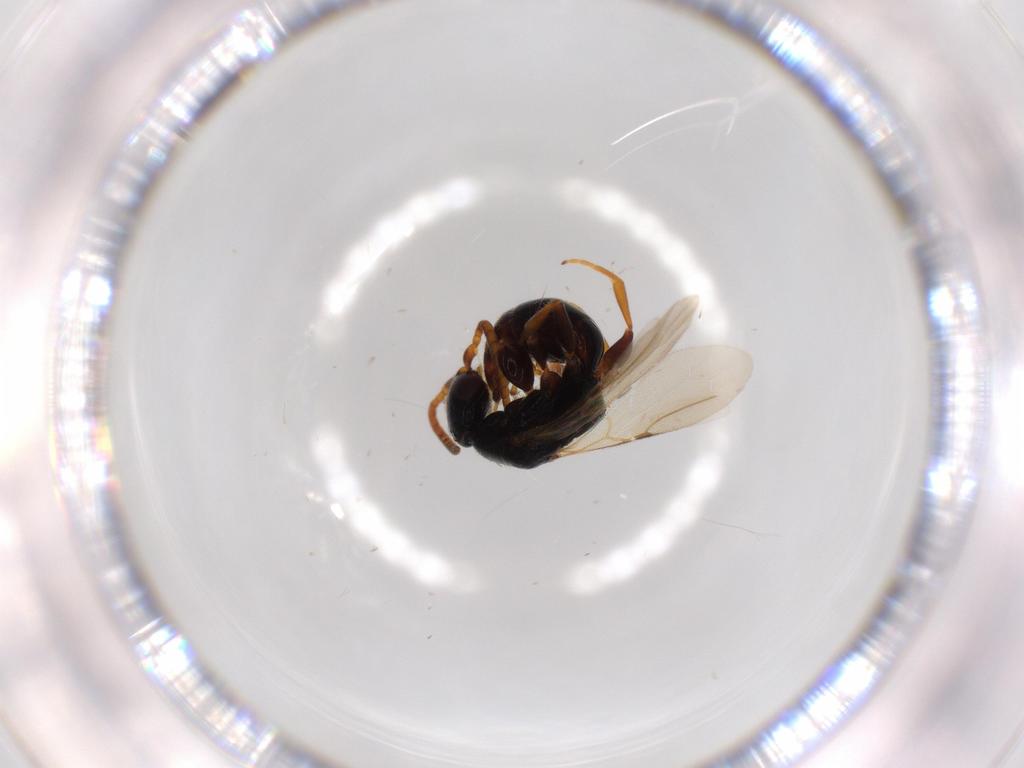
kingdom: Animalia
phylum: Arthropoda
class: Insecta
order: Hymenoptera
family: Bethylidae
